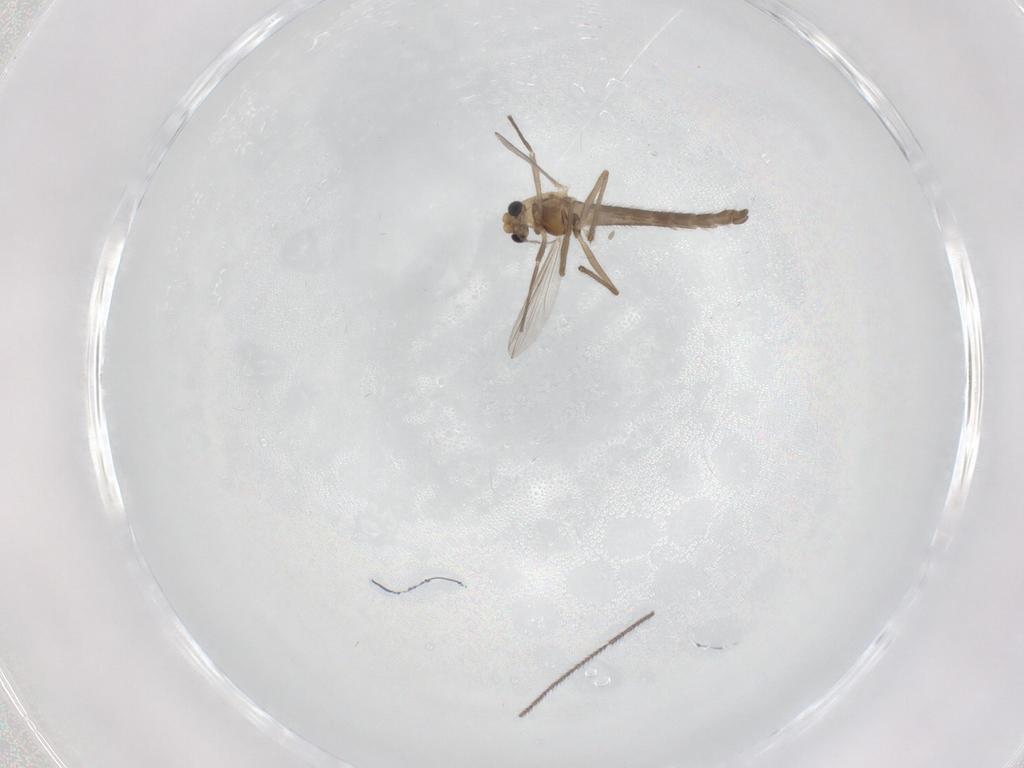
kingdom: Animalia
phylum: Arthropoda
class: Insecta
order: Diptera
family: Chironomidae
